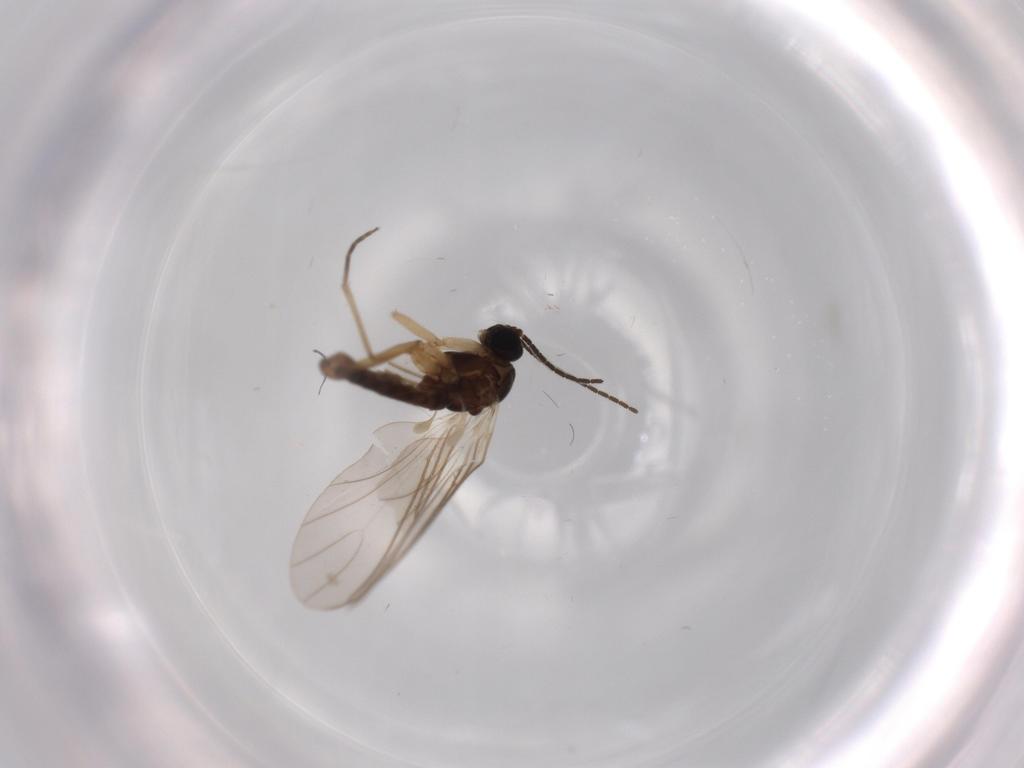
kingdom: Animalia
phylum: Arthropoda
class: Insecta
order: Diptera
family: Sciaridae
